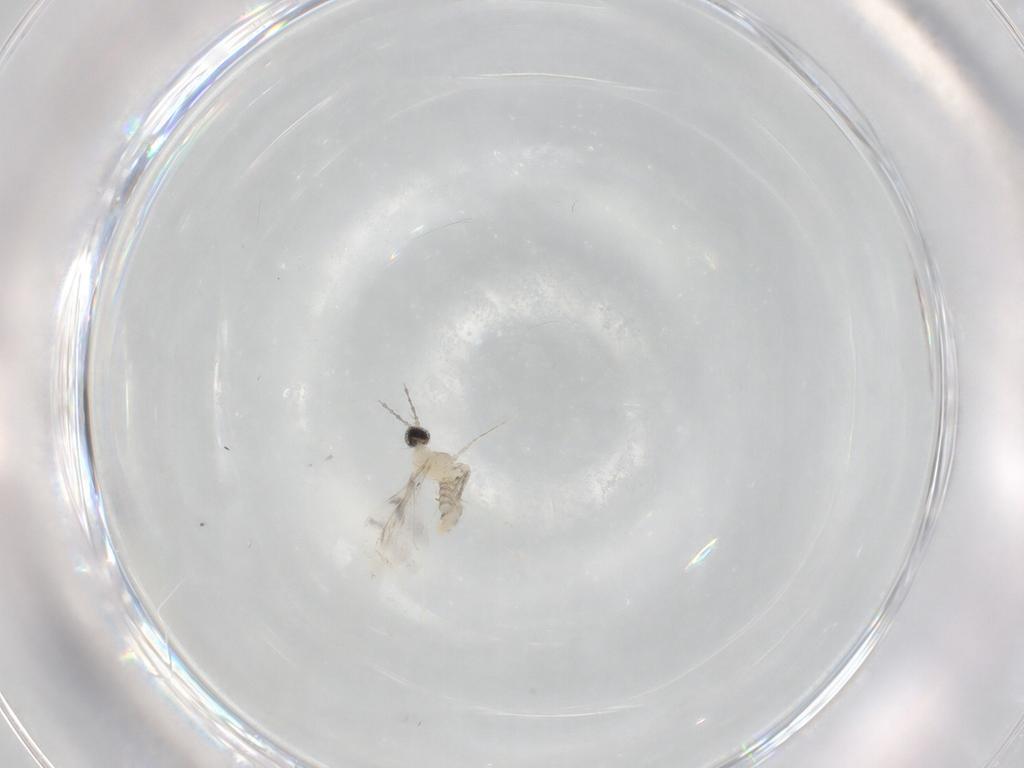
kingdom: Animalia
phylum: Arthropoda
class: Insecta
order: Diptera
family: Cecidomyiidae
